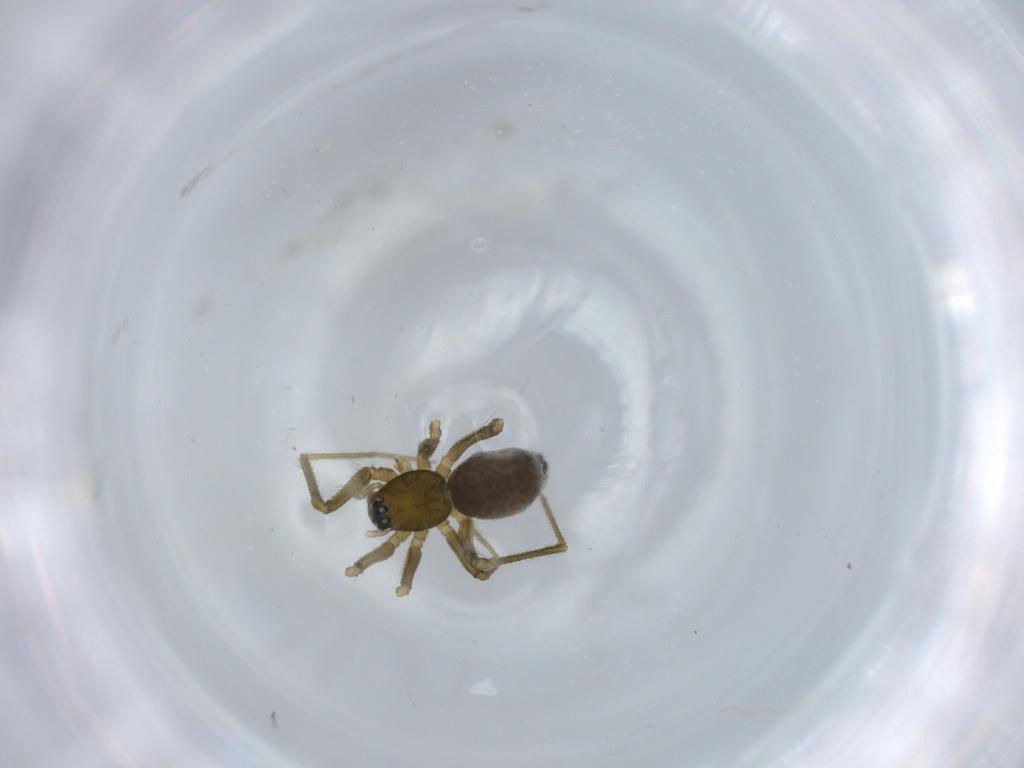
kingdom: Animalia
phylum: Arthropoda
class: Arachnida
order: Araneae
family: Linyphiidae
